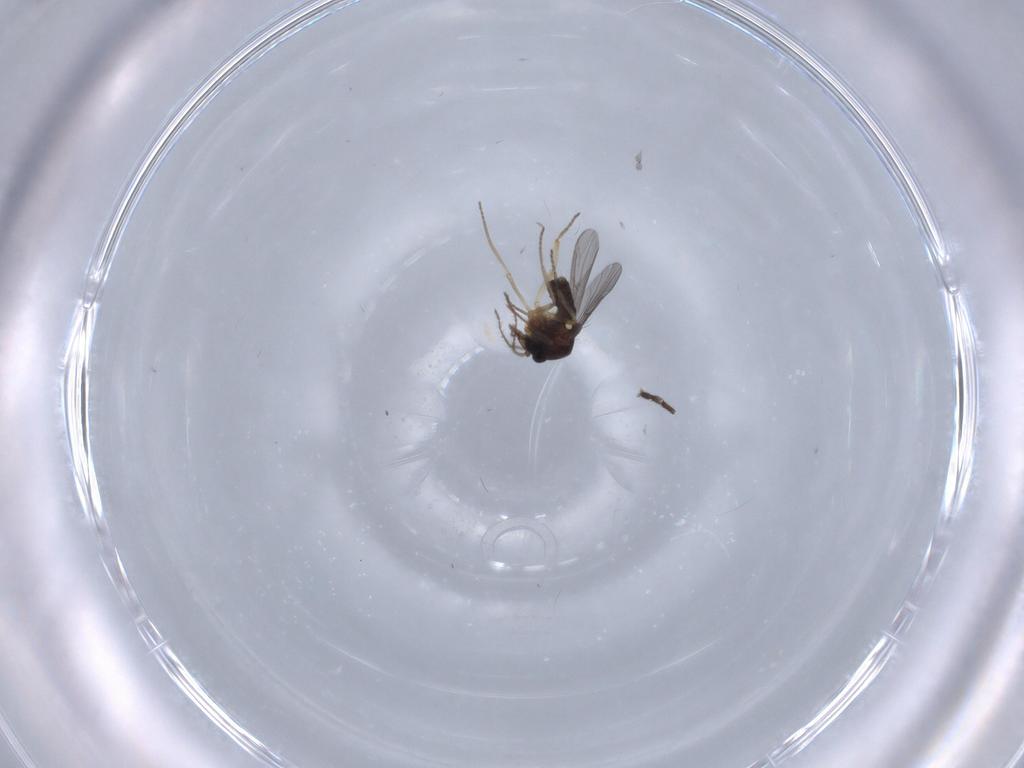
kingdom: Animalia
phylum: Arthropoda
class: Insecta
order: Diptera
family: Ceratopogonidae
